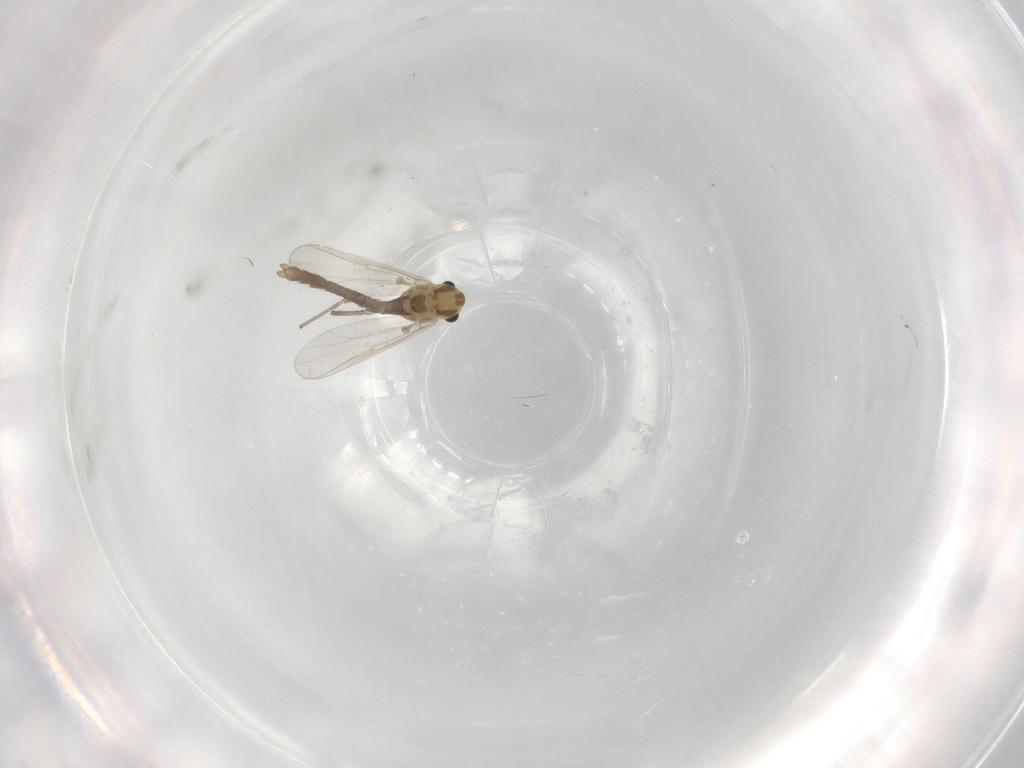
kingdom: Animalia
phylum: Arthropoda
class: Insecta
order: Diptera
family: Chironomidae
